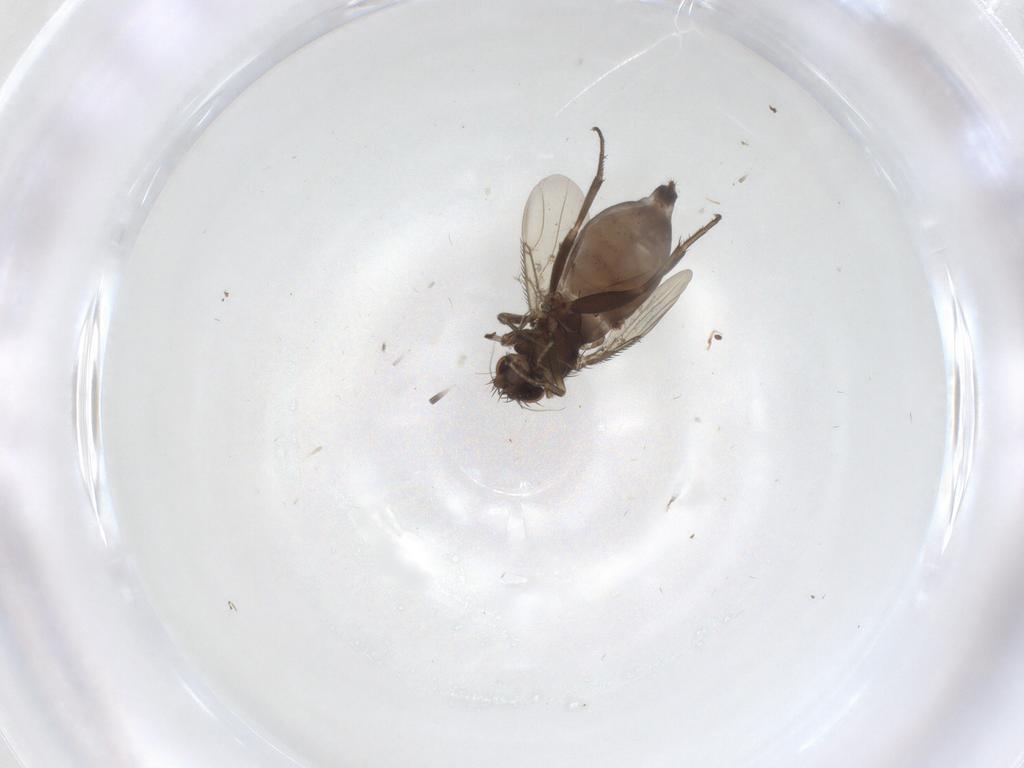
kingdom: Animalia
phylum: Arthropoda
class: Insecta
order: Diptera
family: Phoridae
